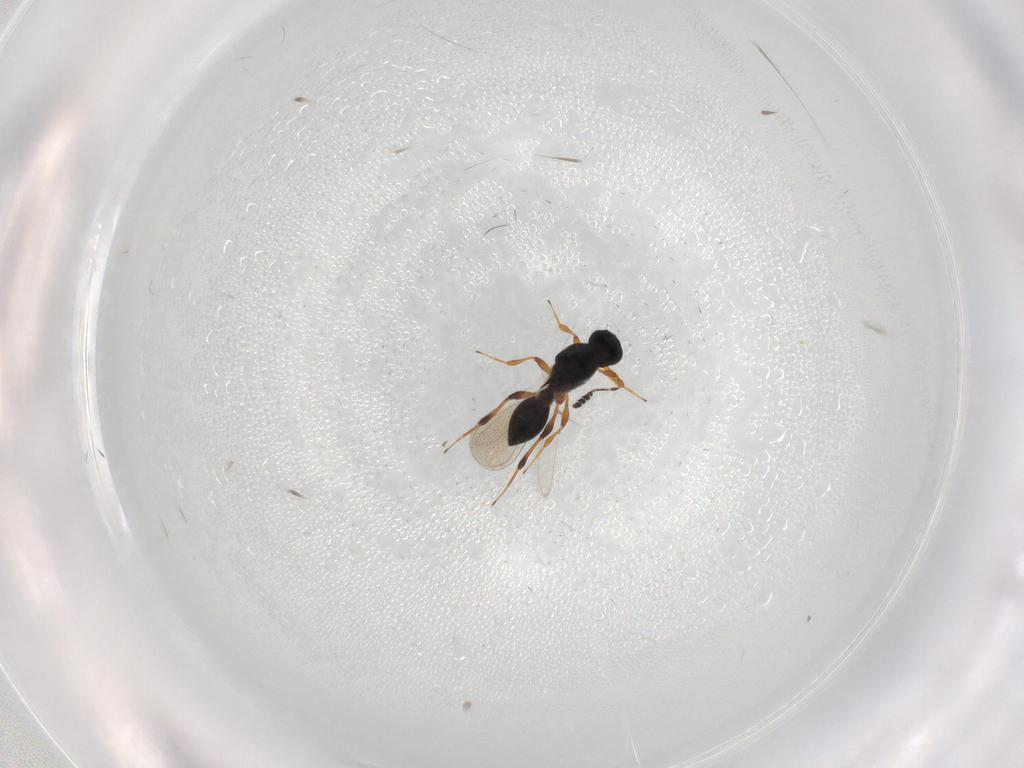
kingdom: Animalia
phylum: Arthropoda
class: Insecta
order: Hymenoptera
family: Platygastridae
